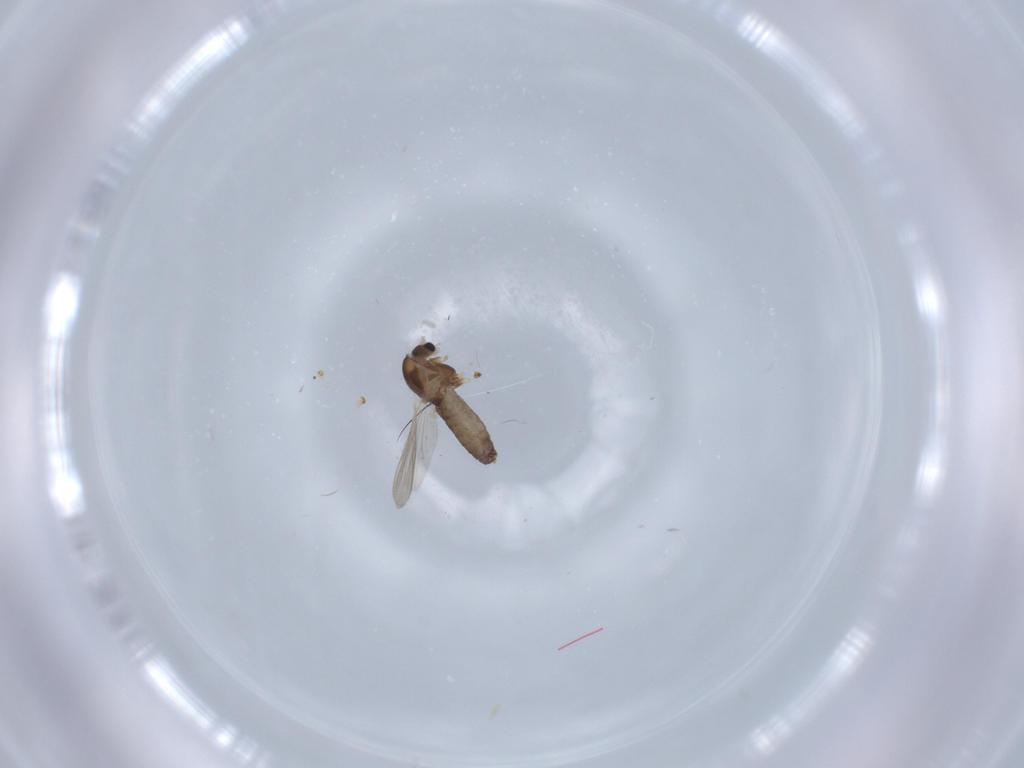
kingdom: Animalia
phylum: Arthropoda
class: Insecta
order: Diptera
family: Chironomidae
